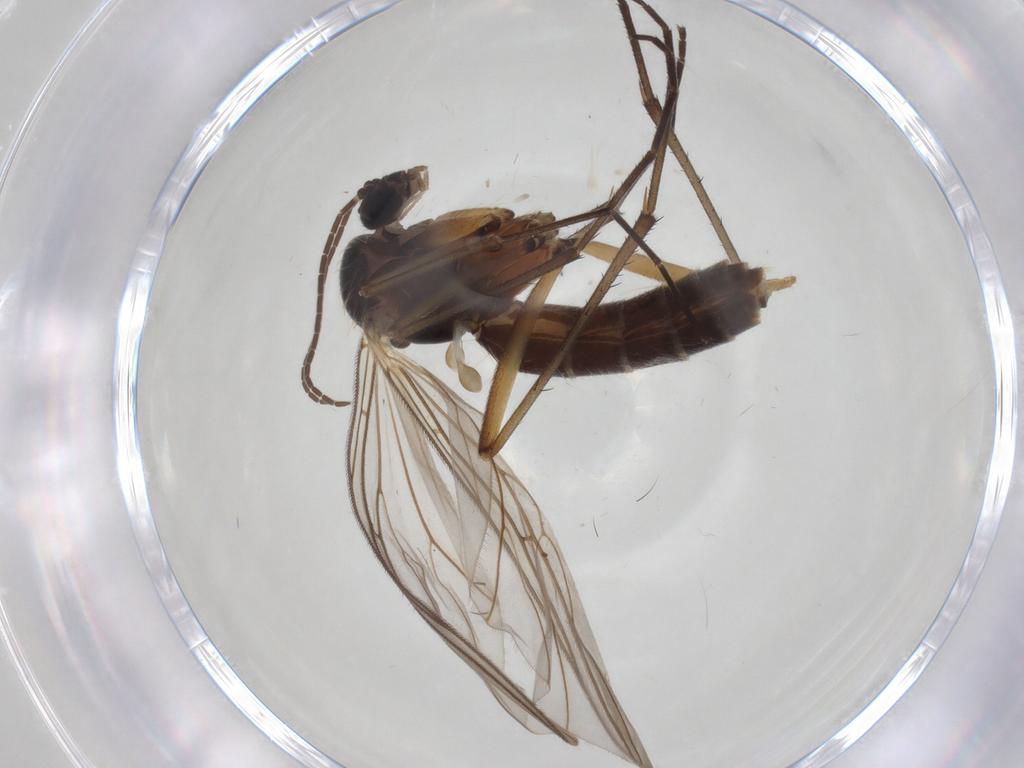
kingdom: Animalia
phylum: Arthropoda
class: Insecta
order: Diptera
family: Mycetophilidae
